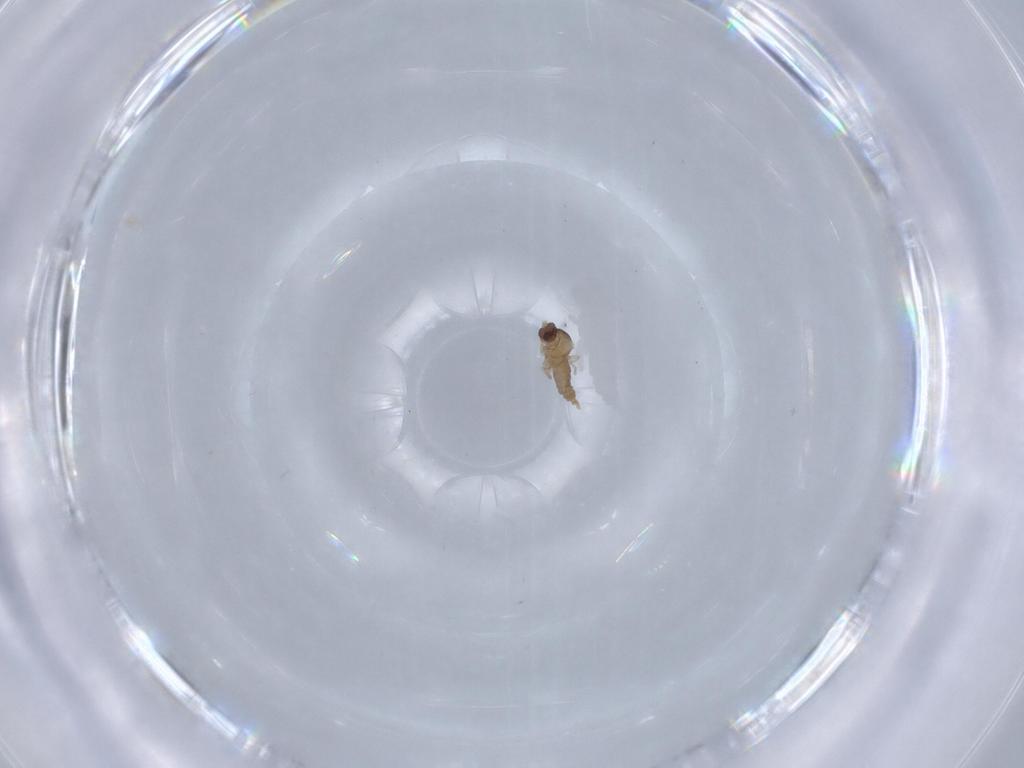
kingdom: Animalia
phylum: Arthropoda
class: Insecta
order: Diptera
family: Cecidomyiidae
